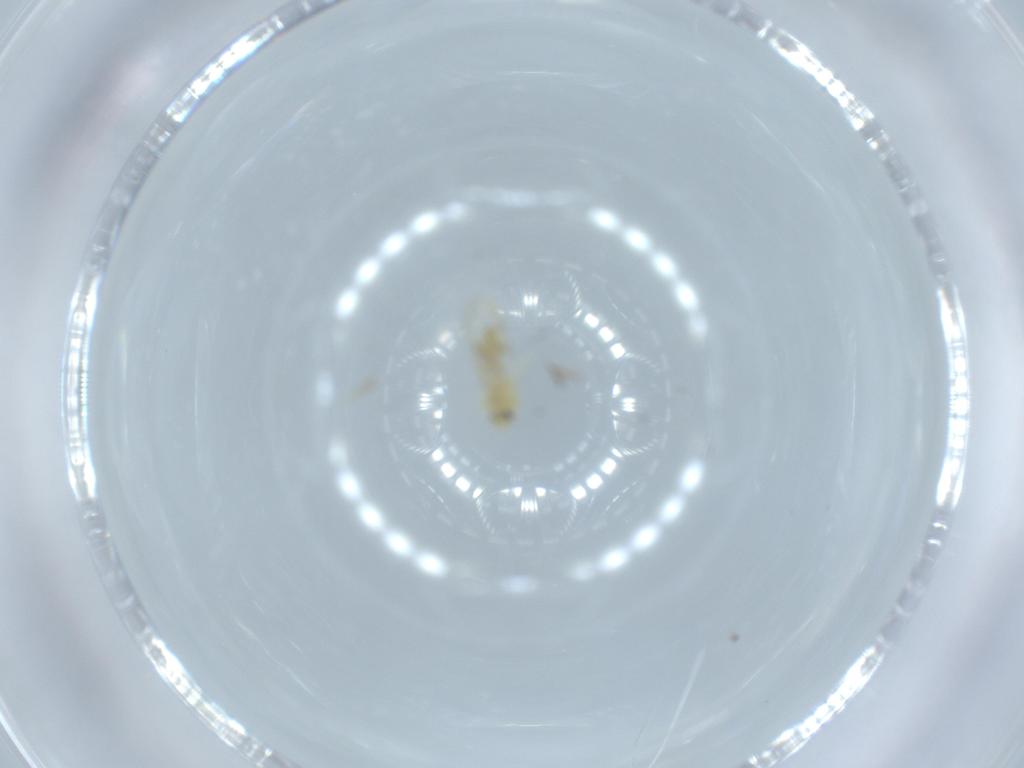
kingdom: Animalia
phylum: Arthropoda
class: Insecta
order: Hemiptera
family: Aleyrodidae
